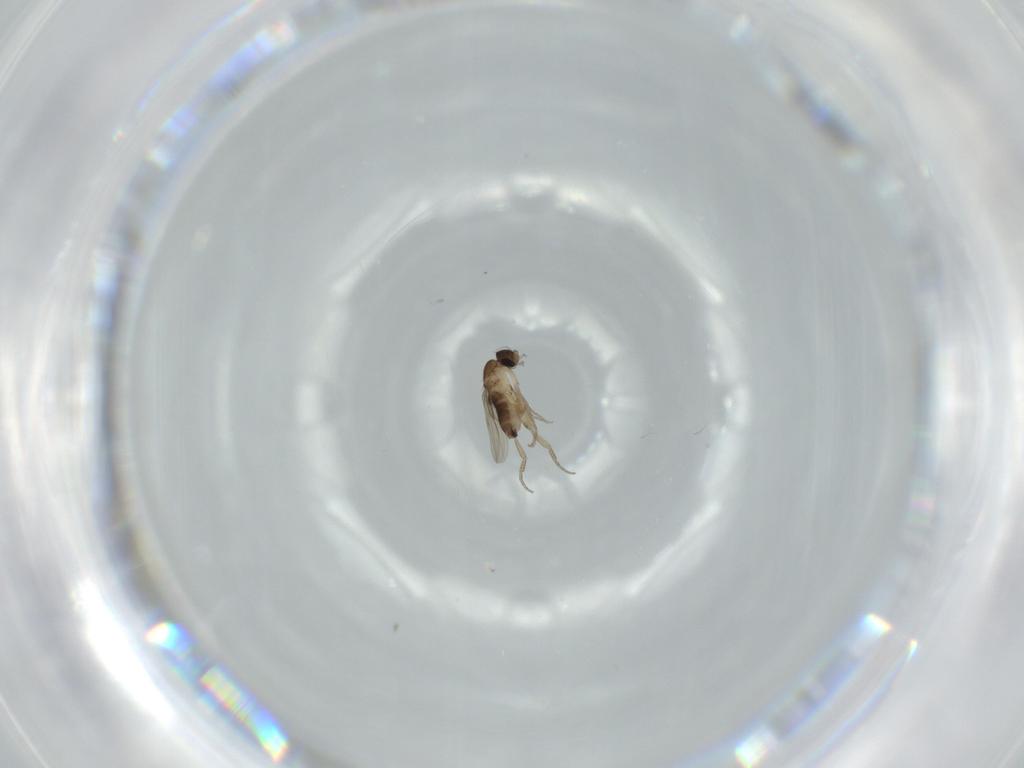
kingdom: Animalia
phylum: Arthropoda
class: Insecta
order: Diptera
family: Phoridae
